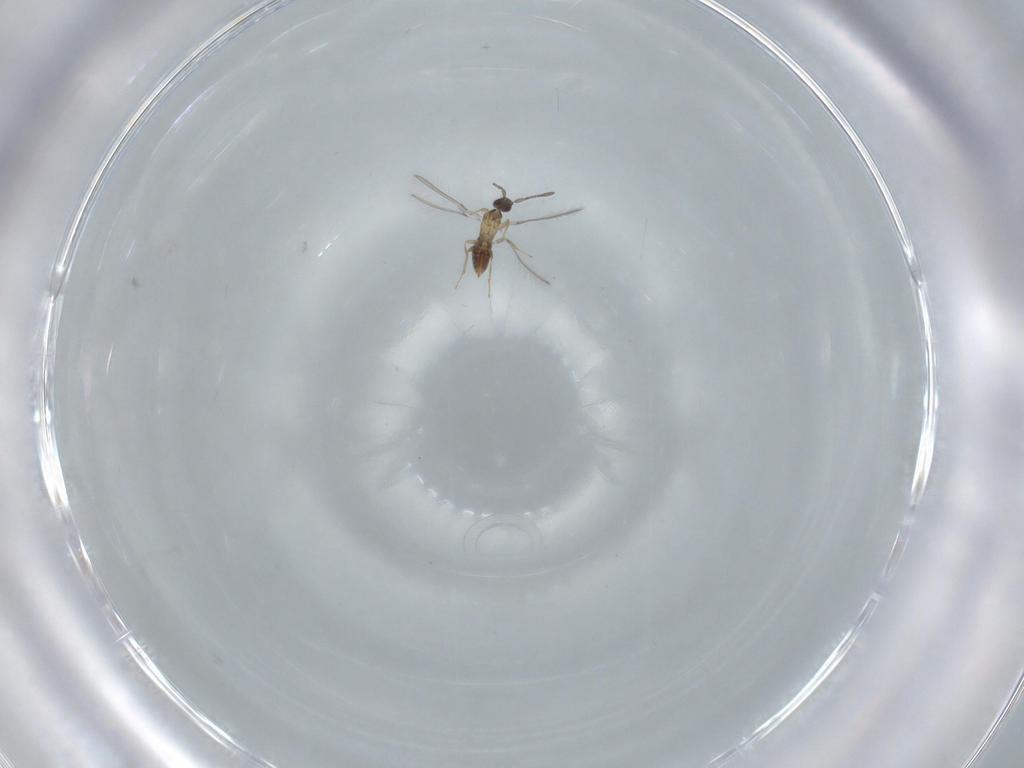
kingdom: Animalia
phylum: Arthropoda
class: Insecta
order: Hymenoptera
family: Mymaridae
